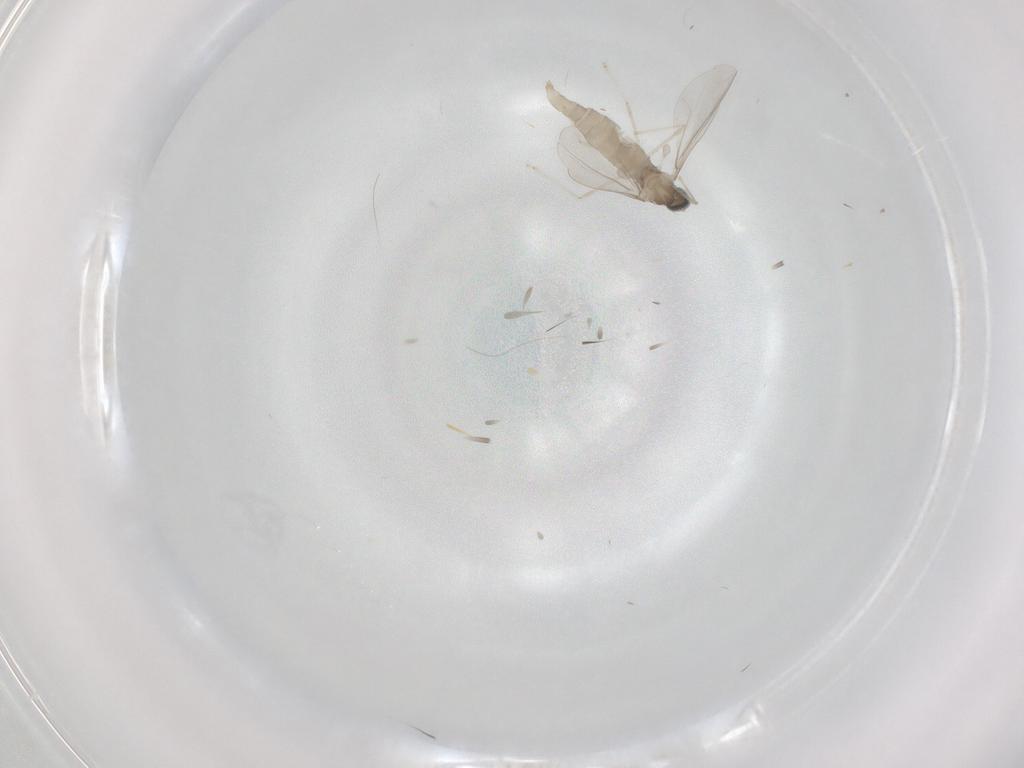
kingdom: Animalia
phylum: Arthropoda
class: Insecta
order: Diptera
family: Cecidomyiidae
